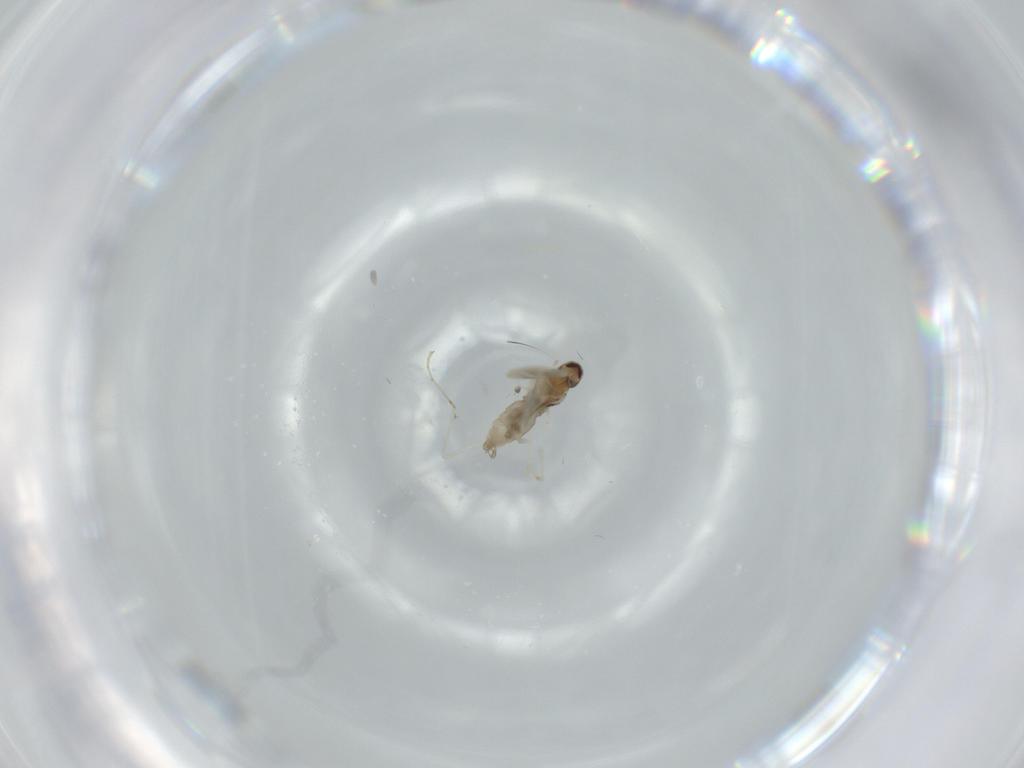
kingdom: Animalia
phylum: Arthropoda
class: Insecta
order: Diptera
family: Cecidomyiidae
